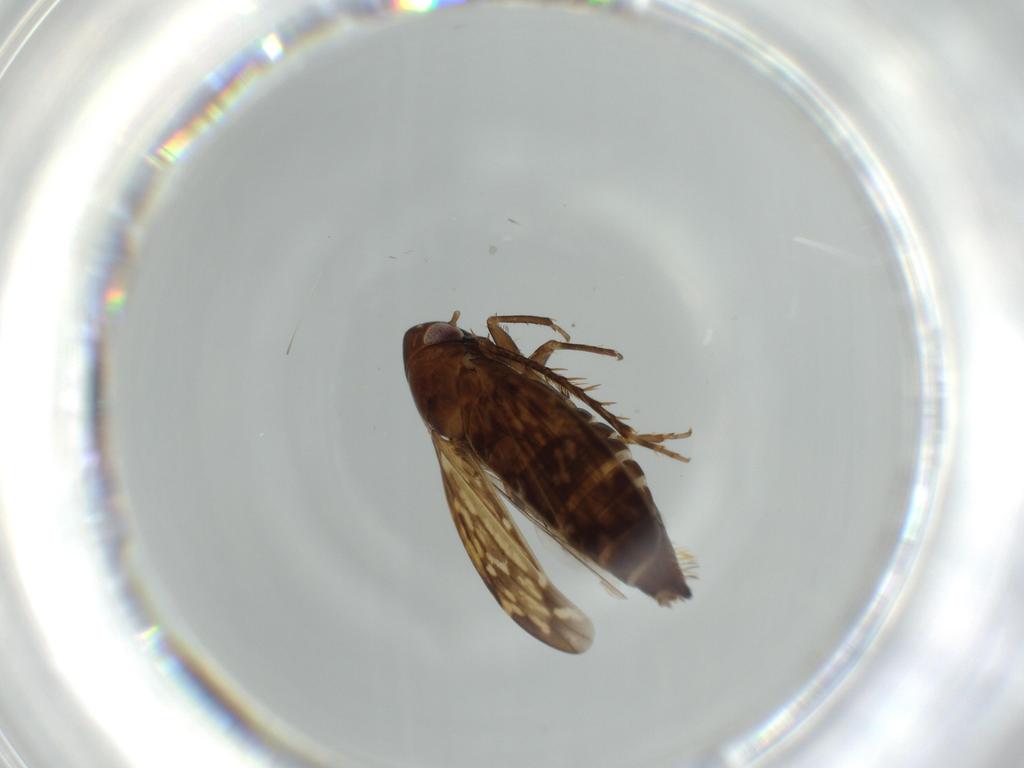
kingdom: Animalia
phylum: Arthropoda
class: Insecta
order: Hemiptera
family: Cicadellidae
